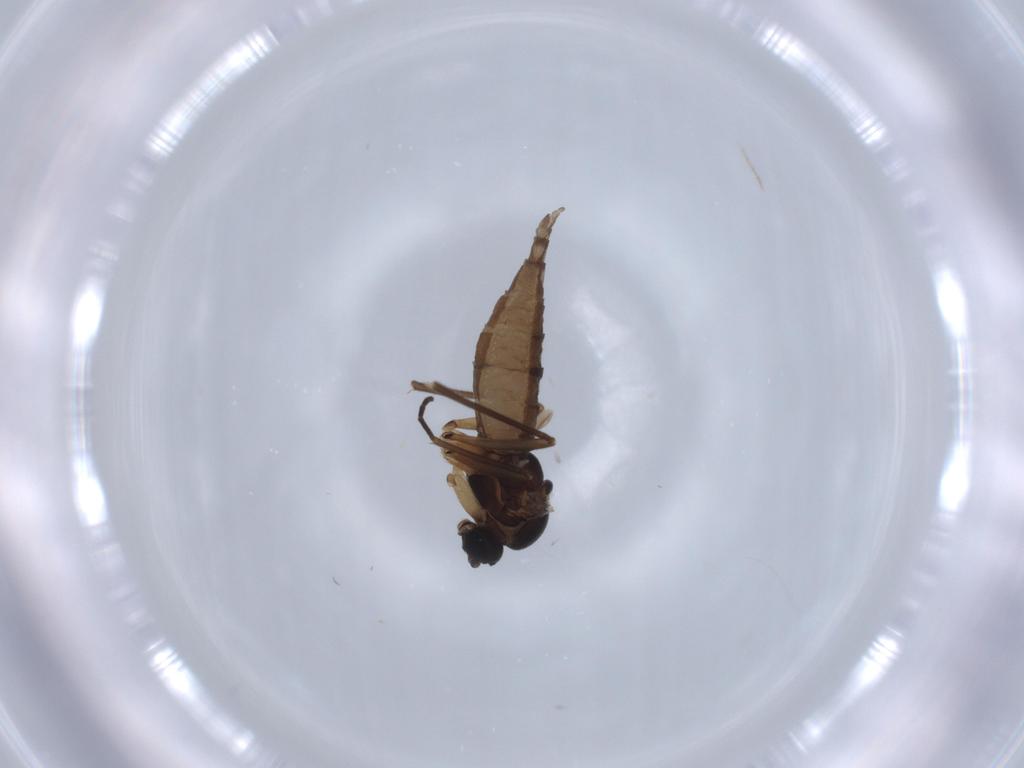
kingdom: Animalia
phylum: Arthropoda
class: Insecta
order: Diptera
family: Sciaridae
